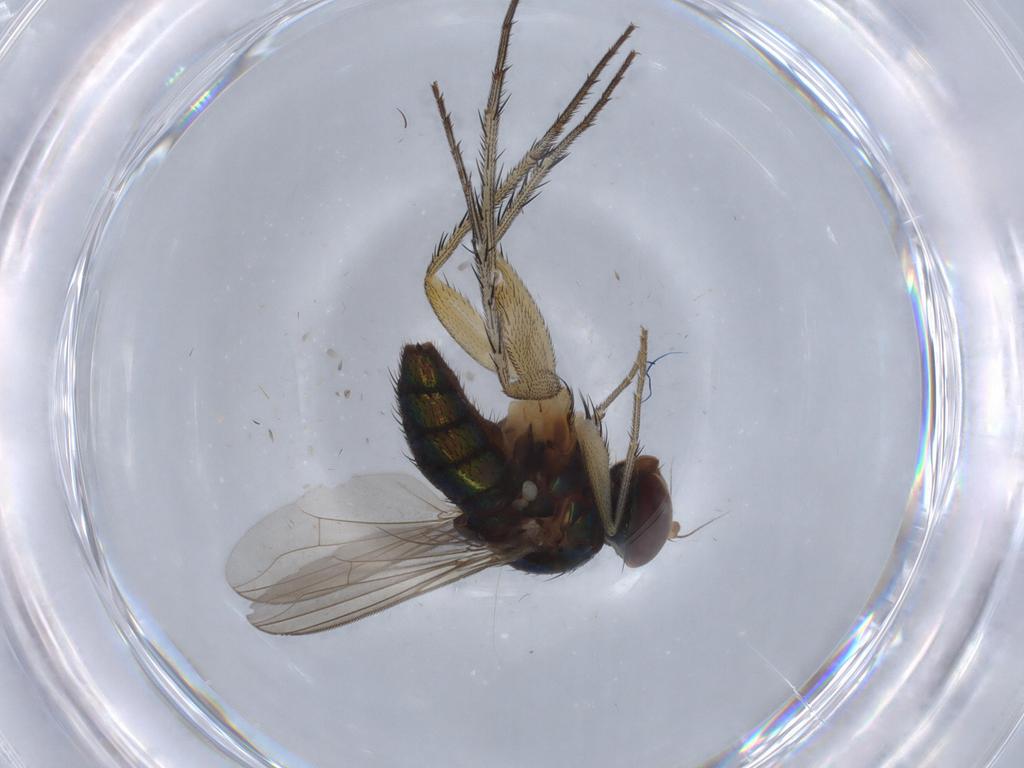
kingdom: Animalia
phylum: Arthropoda
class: Insecta
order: Diptera
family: Dolichopodidae
